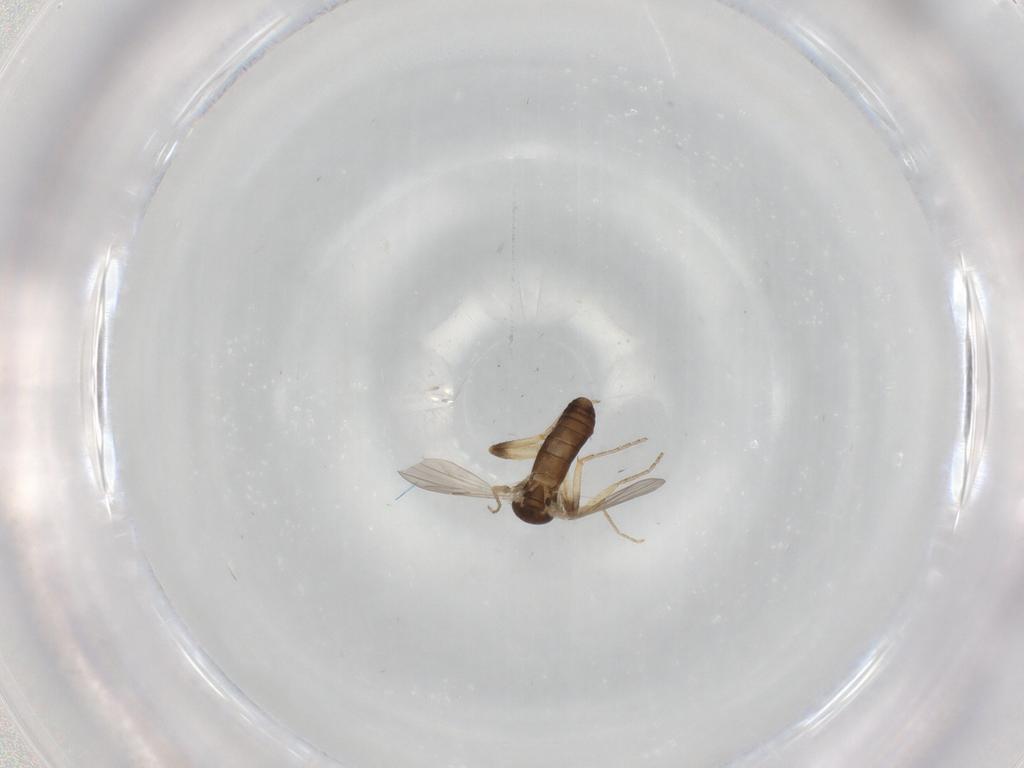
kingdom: Animalia
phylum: Arthropoda
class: Insecta
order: Diptera
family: Ceratopogonidae
